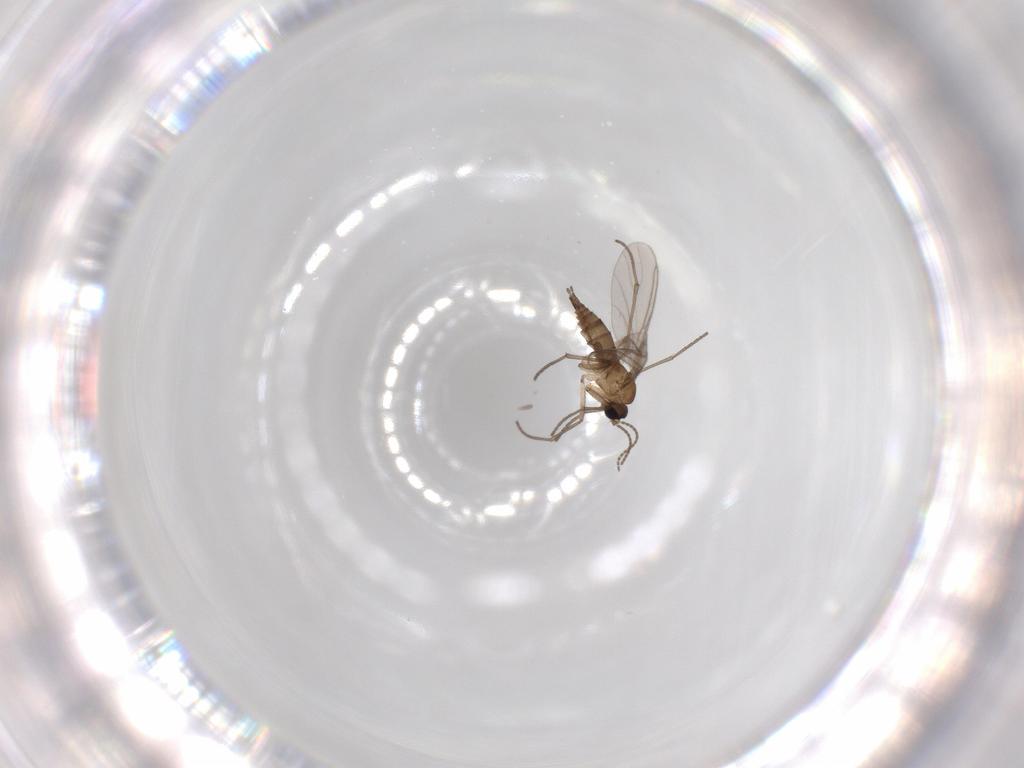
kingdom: Animalia
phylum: Arthropoda
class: Insecta
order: Diptera
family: Sciaridae
